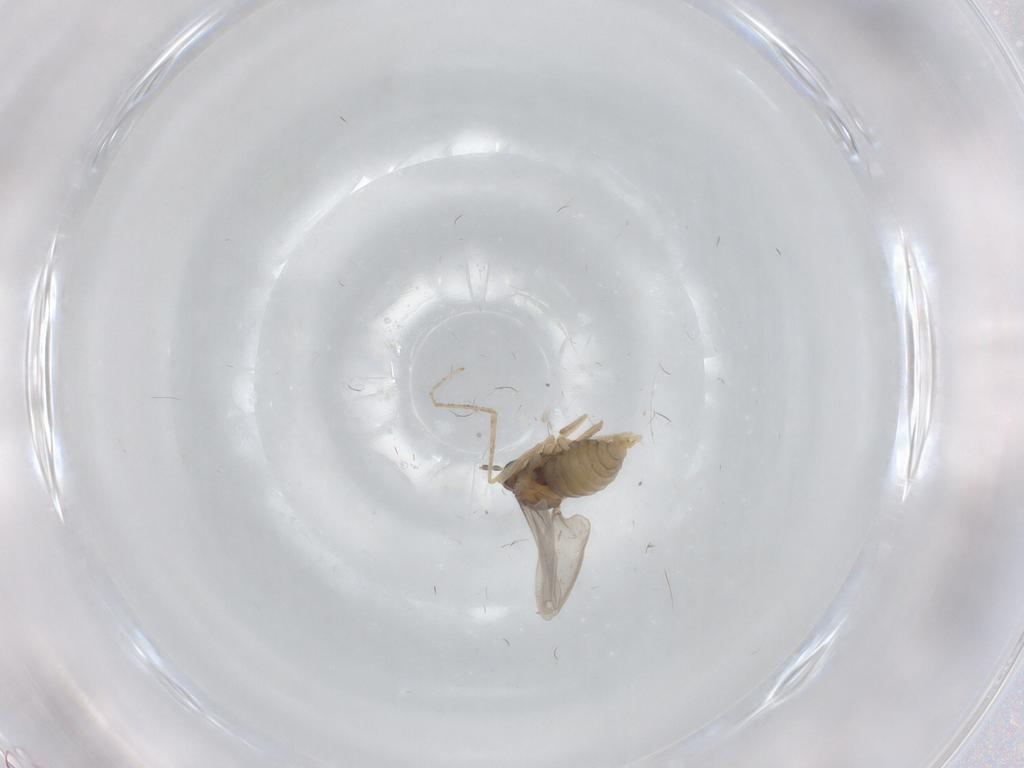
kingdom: Animalia
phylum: Arthropoda
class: Insecta
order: Diptera
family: Cecidomyiidae
